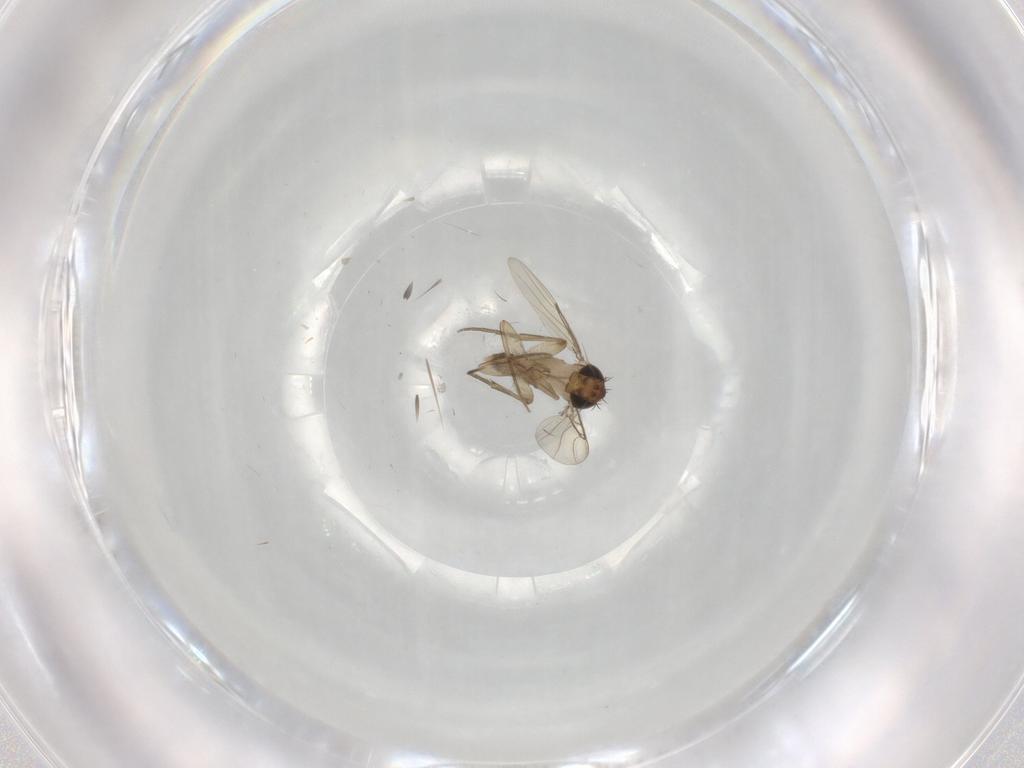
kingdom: Animalia
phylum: Arthropoda
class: Insecta
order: Diptera
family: Phoridae
